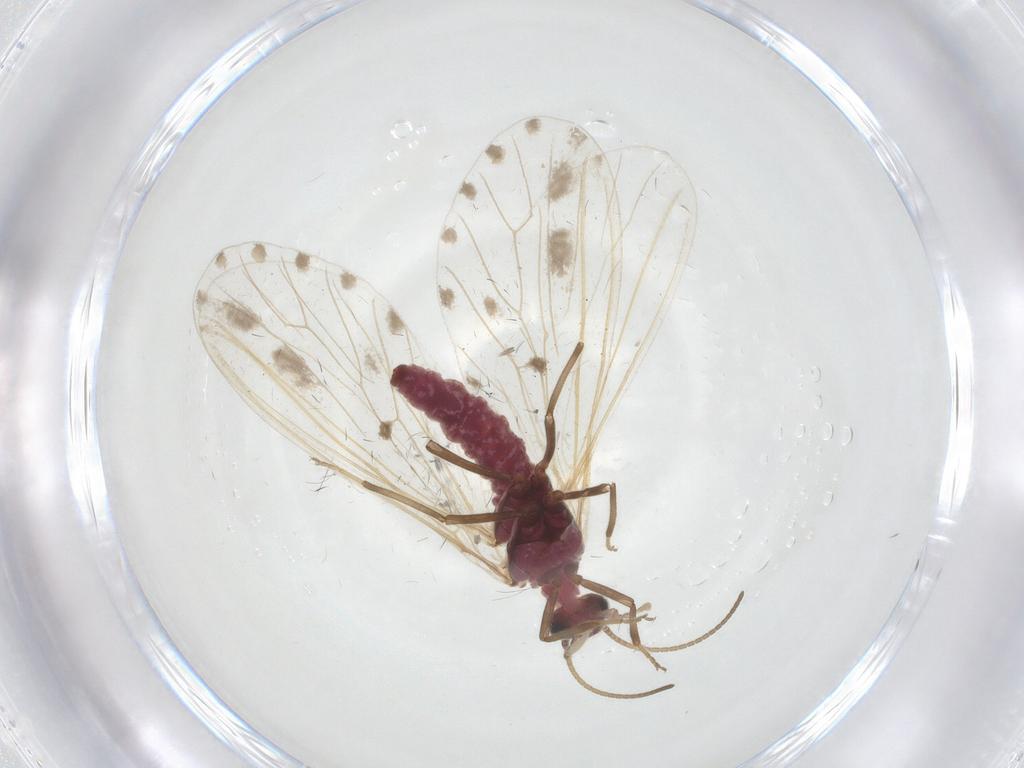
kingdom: Animalia
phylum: Arthropoda
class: Insecta
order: Neuroptera
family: Coniopterygidae
